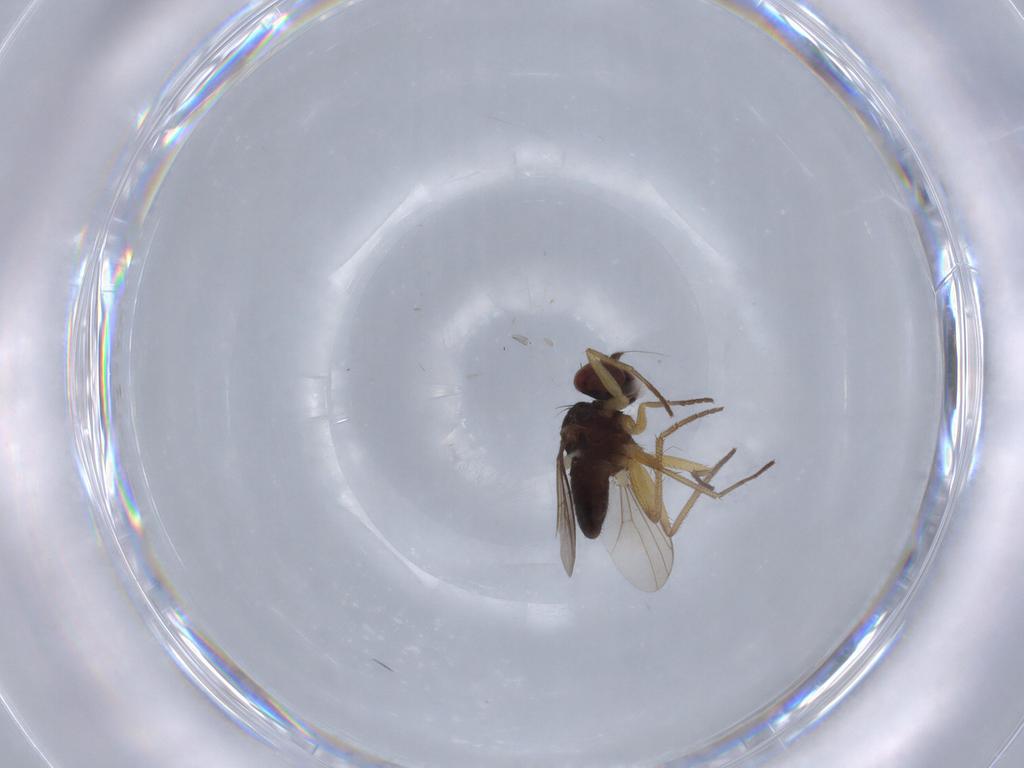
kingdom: Animalia
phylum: Arthropoda
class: Insecta
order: Diptera
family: Dolichopodidae
